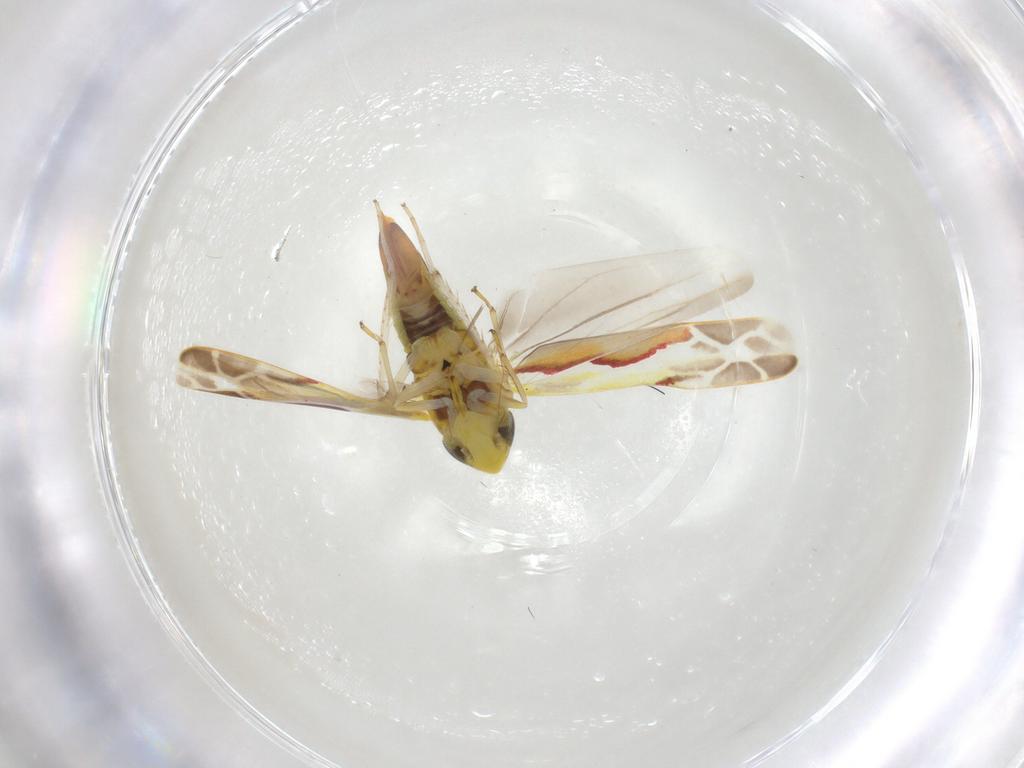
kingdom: Animalia
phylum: Arthropoda
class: Insecta
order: Hemiptera
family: Cicadellidae
